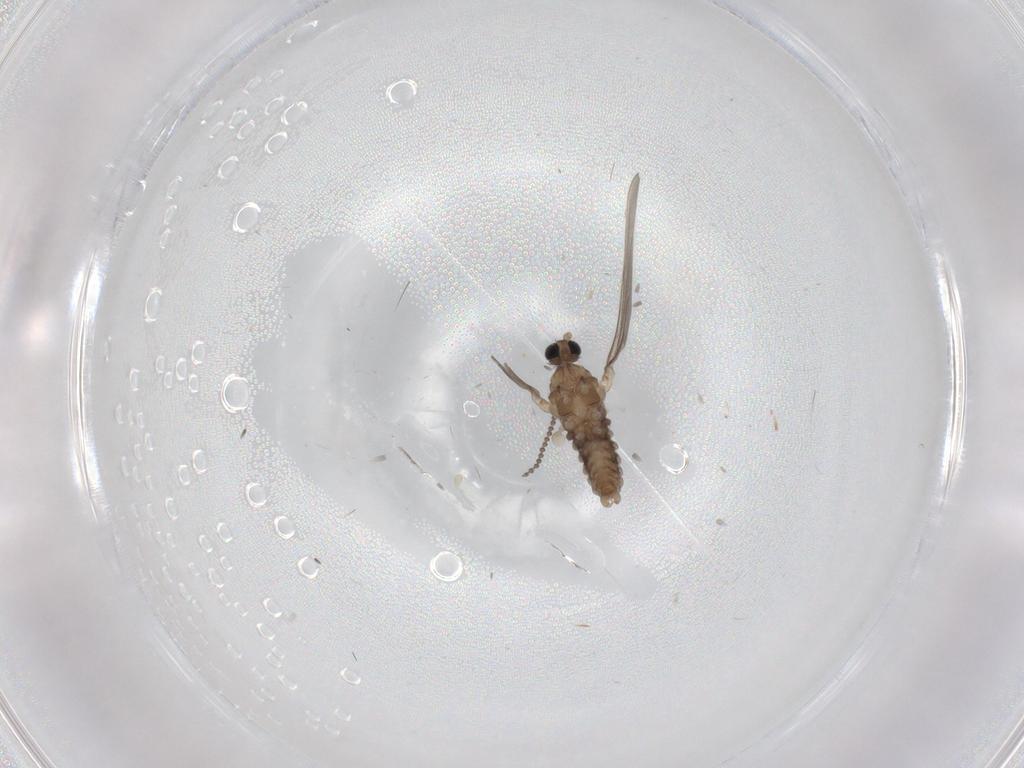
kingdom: Animalia
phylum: Arthropoda
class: Insecta
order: Diptera
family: Cecidomyiidae
